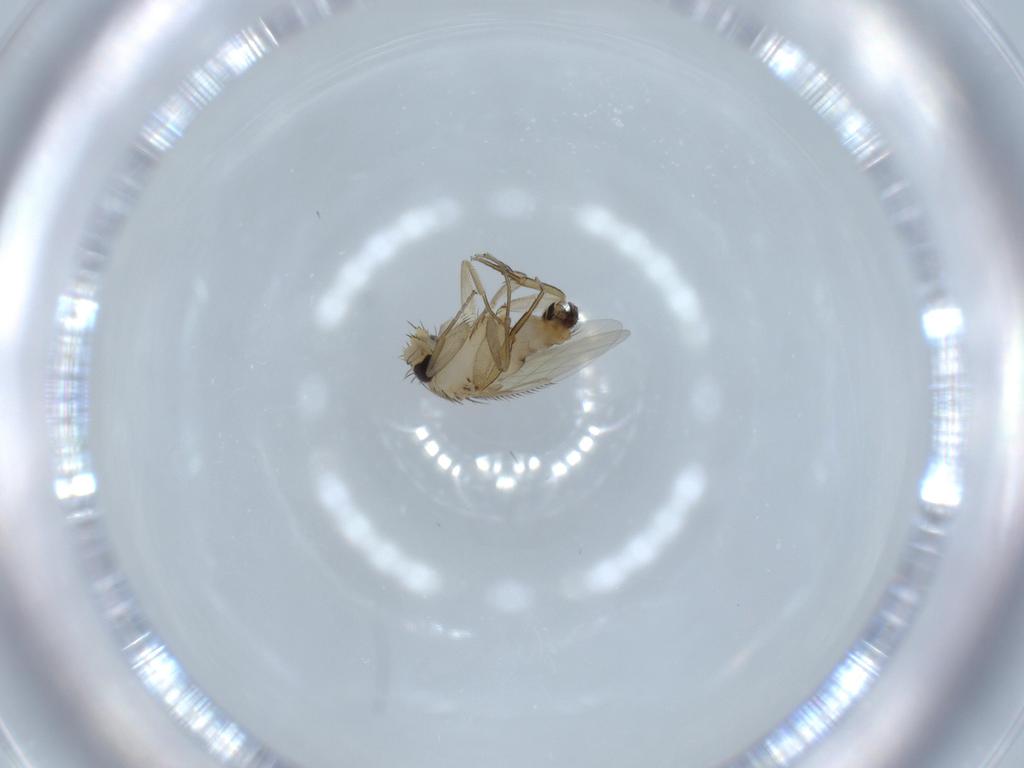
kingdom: Animalia
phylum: Arthropoda
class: Insecta
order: Diptera
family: Phoridae
